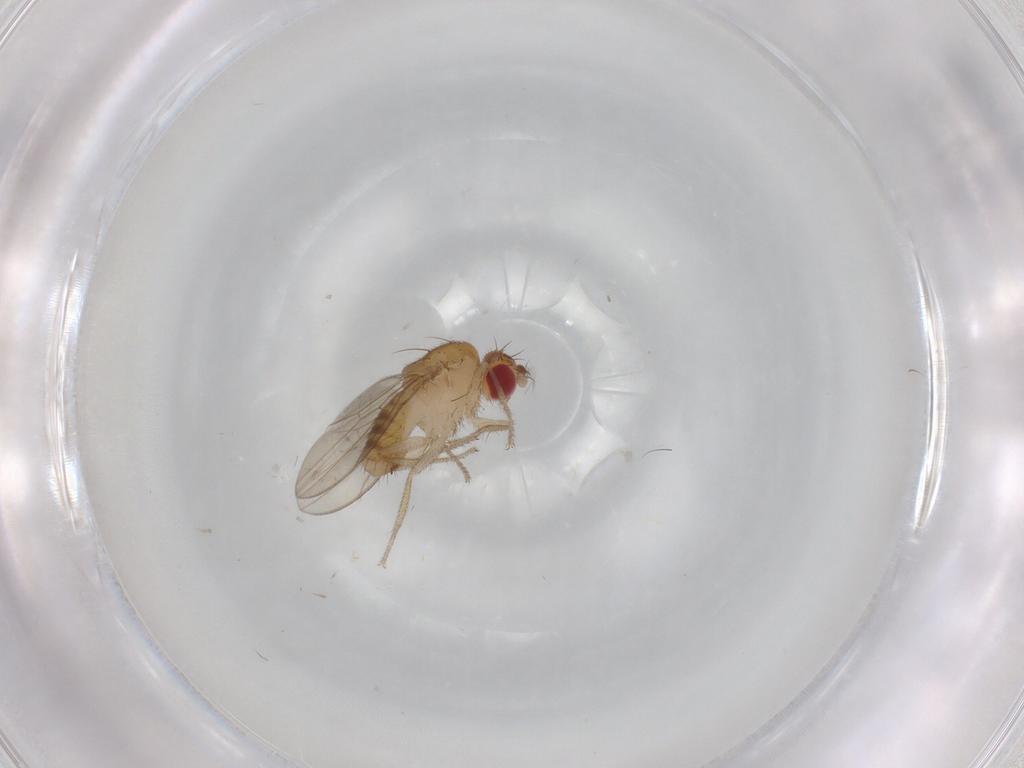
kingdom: Animalia
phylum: Arthropoda
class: Insecta
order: Diptera
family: Drosophilidae
